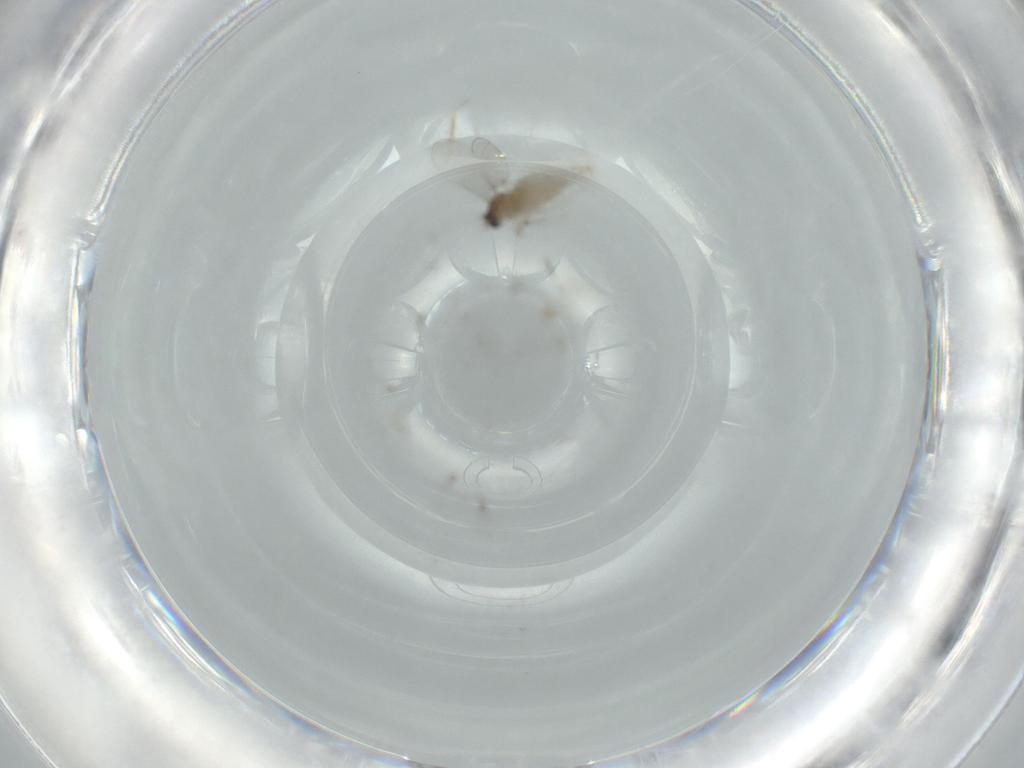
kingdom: Animalia
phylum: Arthropoda
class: Insecta
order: Diptera
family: Cecidomyiidae
